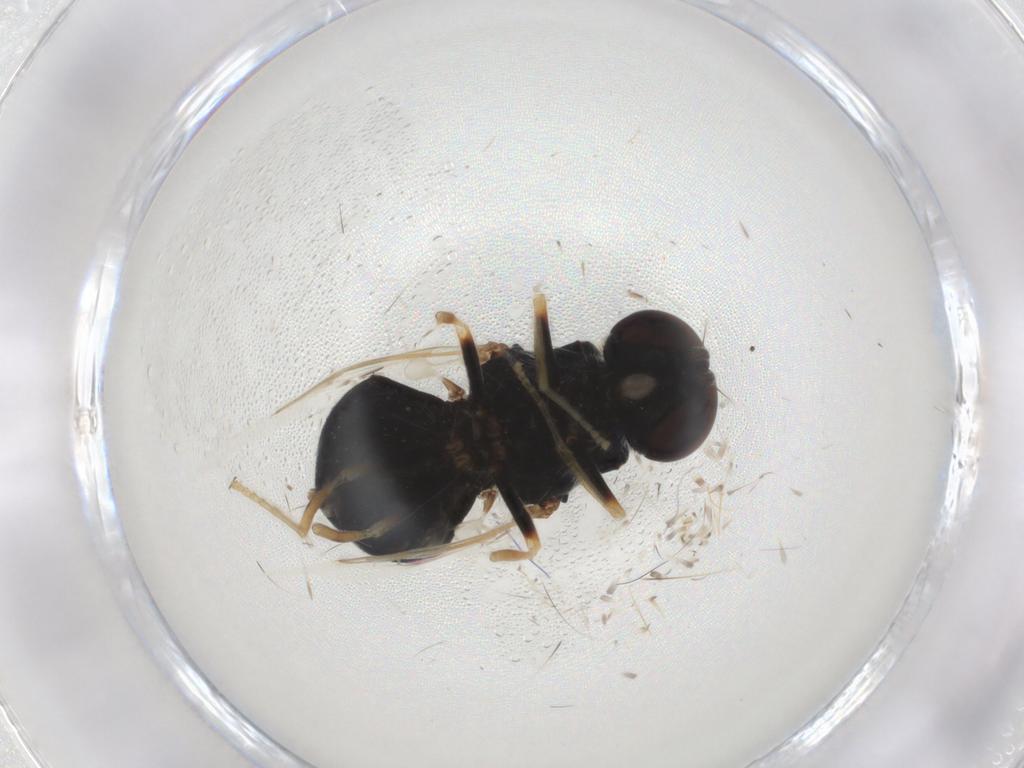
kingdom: Animalia
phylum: Arthropoda
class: Insecta
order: Diptera
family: Stratiomyidae
